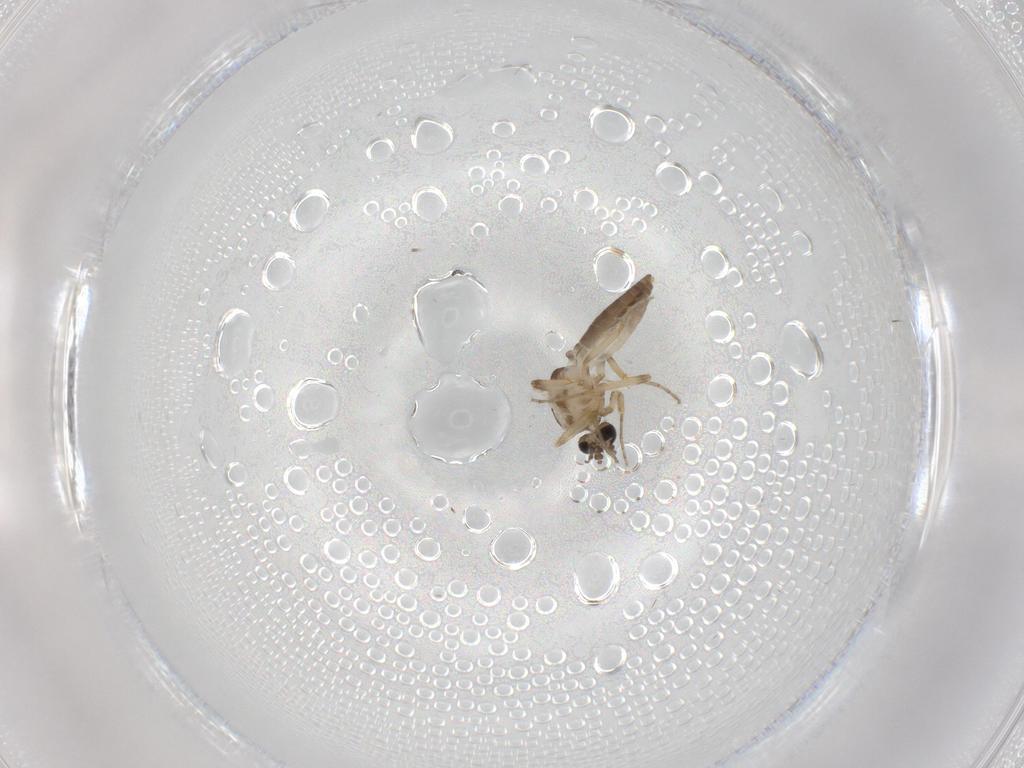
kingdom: Animalia
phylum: Arthropoda
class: Insecta
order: Diptera
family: Ceratopogonidae
